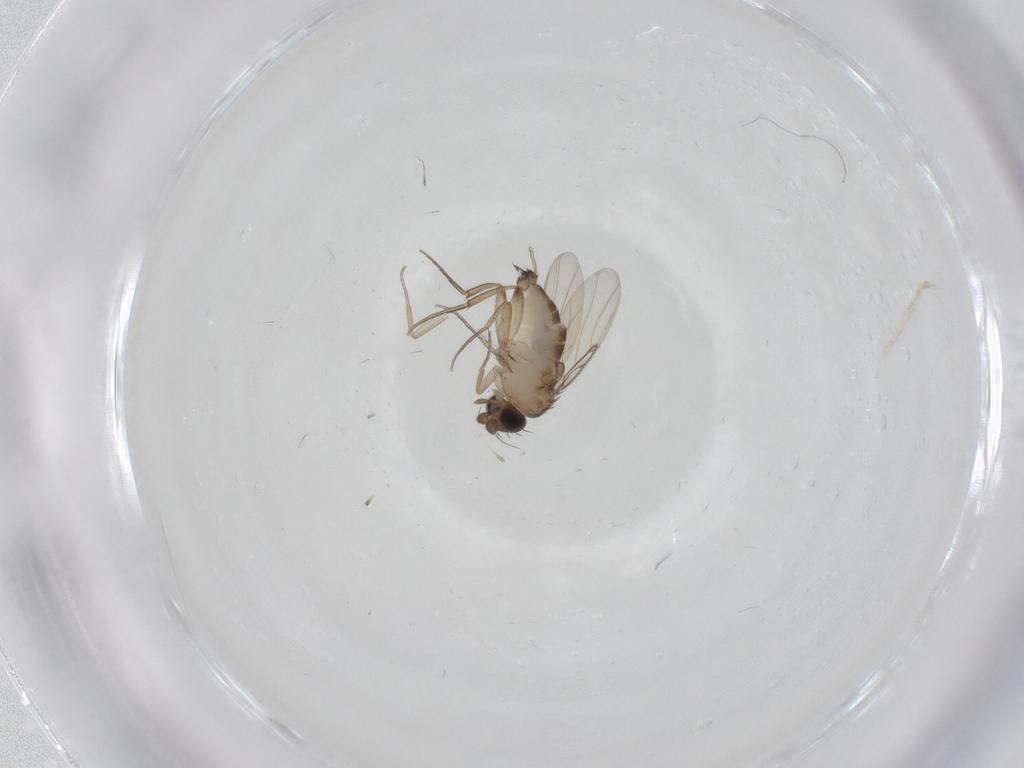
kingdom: Animalia
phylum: Arthropoda
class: Insecta
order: Diptera
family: Phoridae
